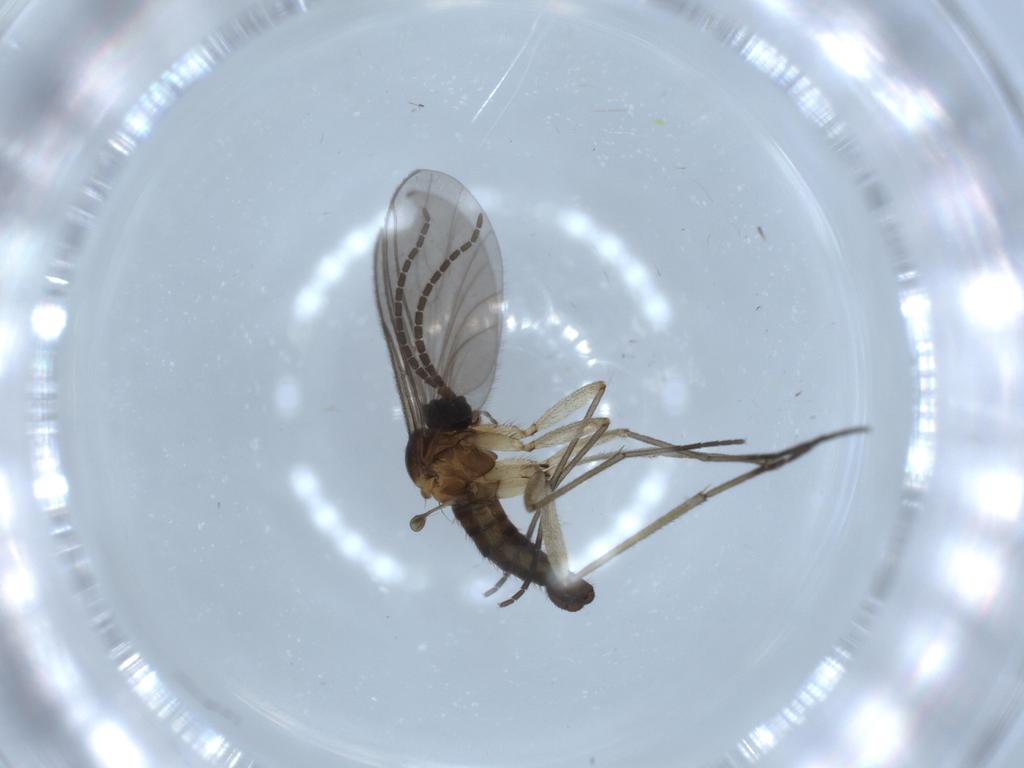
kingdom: Animalia
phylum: Arthropoda
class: Insecta
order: Diptera
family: Sciaridae
